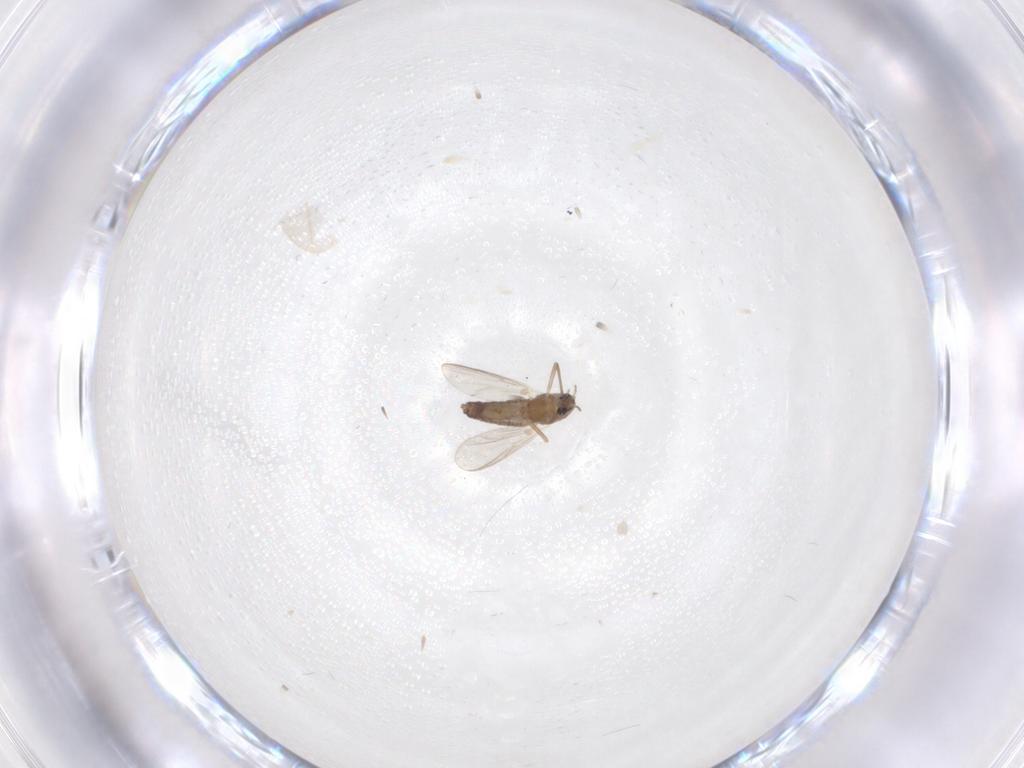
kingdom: Animalia
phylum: Arthropoda
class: Insecta
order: Diptera
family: Chironomidae
